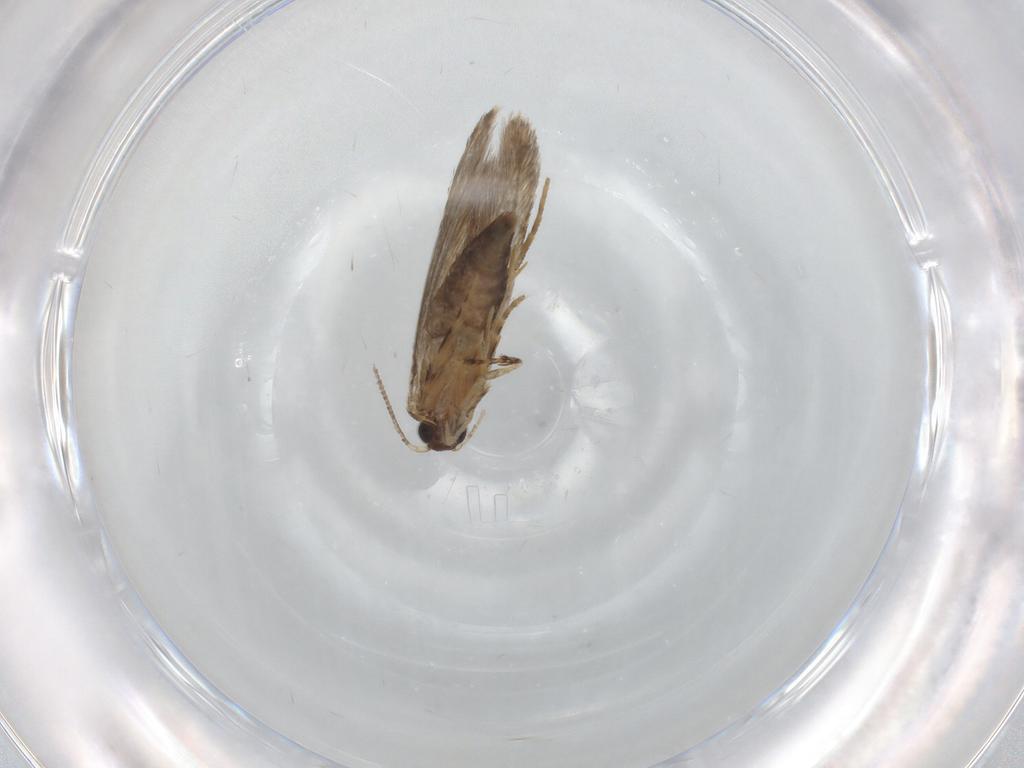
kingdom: Animalia
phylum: Arthropoda
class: Insecta
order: Lepidoptera
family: Tineidae
